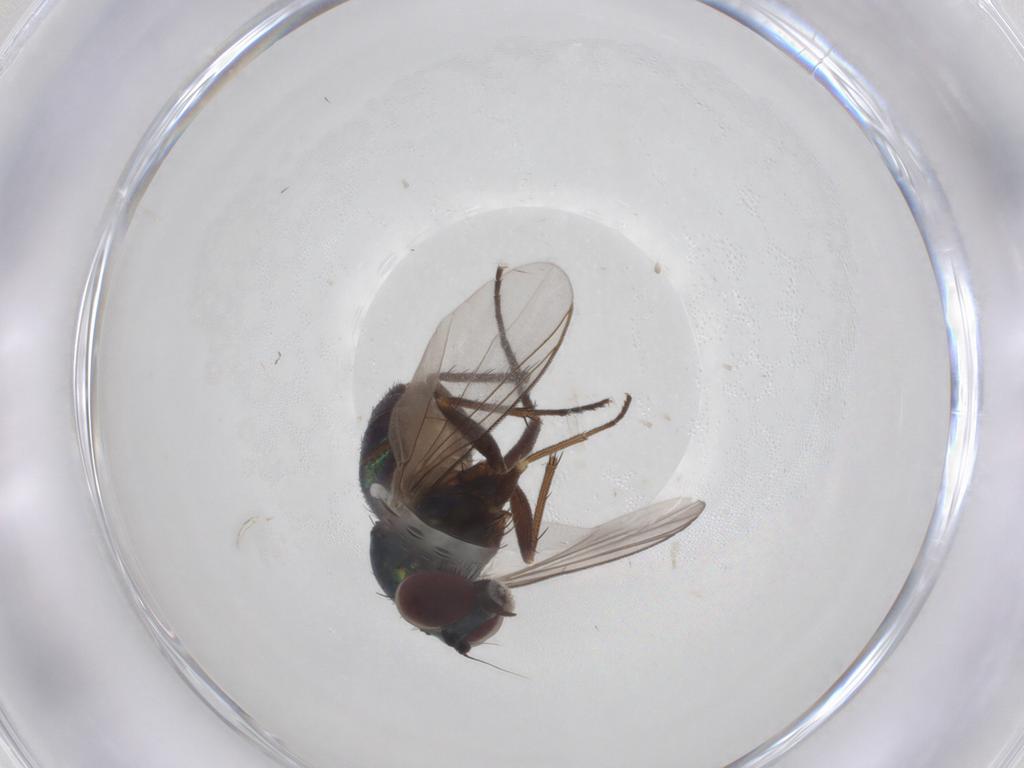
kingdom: Animalia
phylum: Arthropoda
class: Insecta
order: Diptera
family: Dolichopodidae
